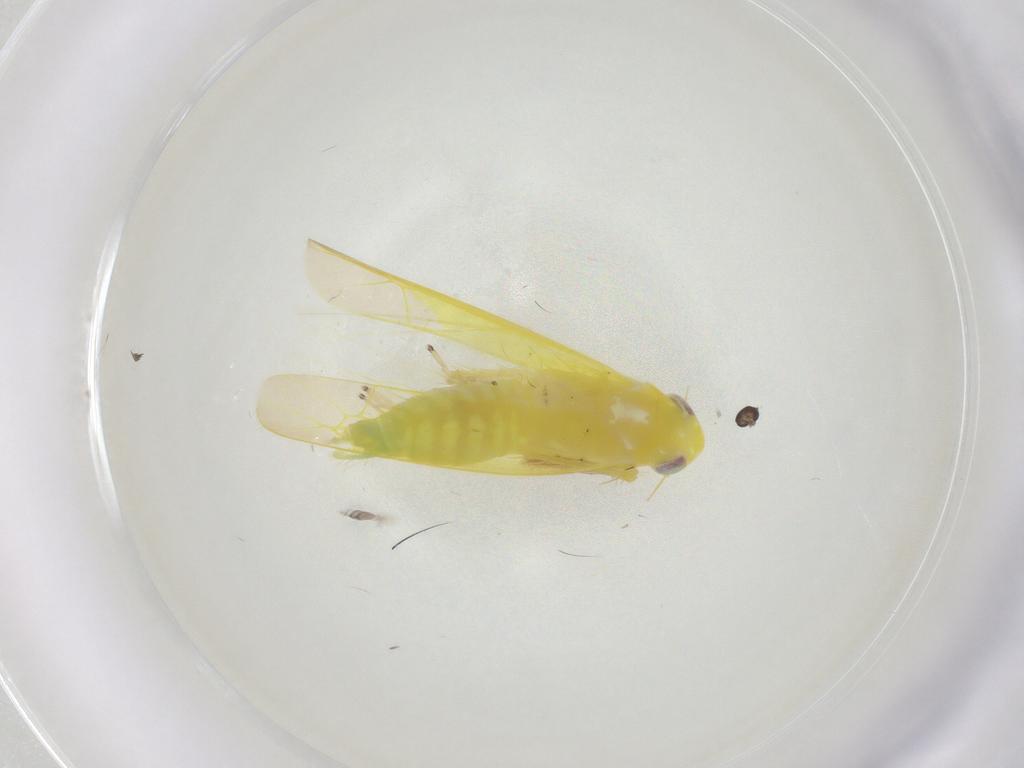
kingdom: Animalia
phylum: Arthropoda
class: Insecta
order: Hemiptera
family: Cicadellidae
